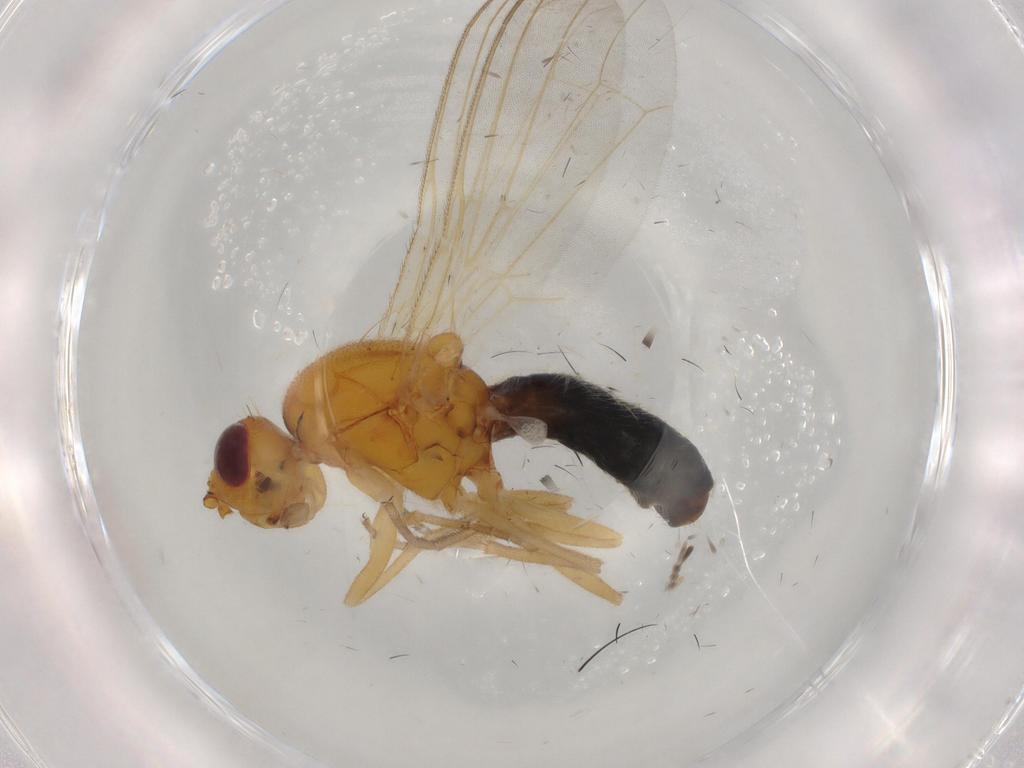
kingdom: Animalia
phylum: Arthropoda
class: Insecta
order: Diptera
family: Psilidae
